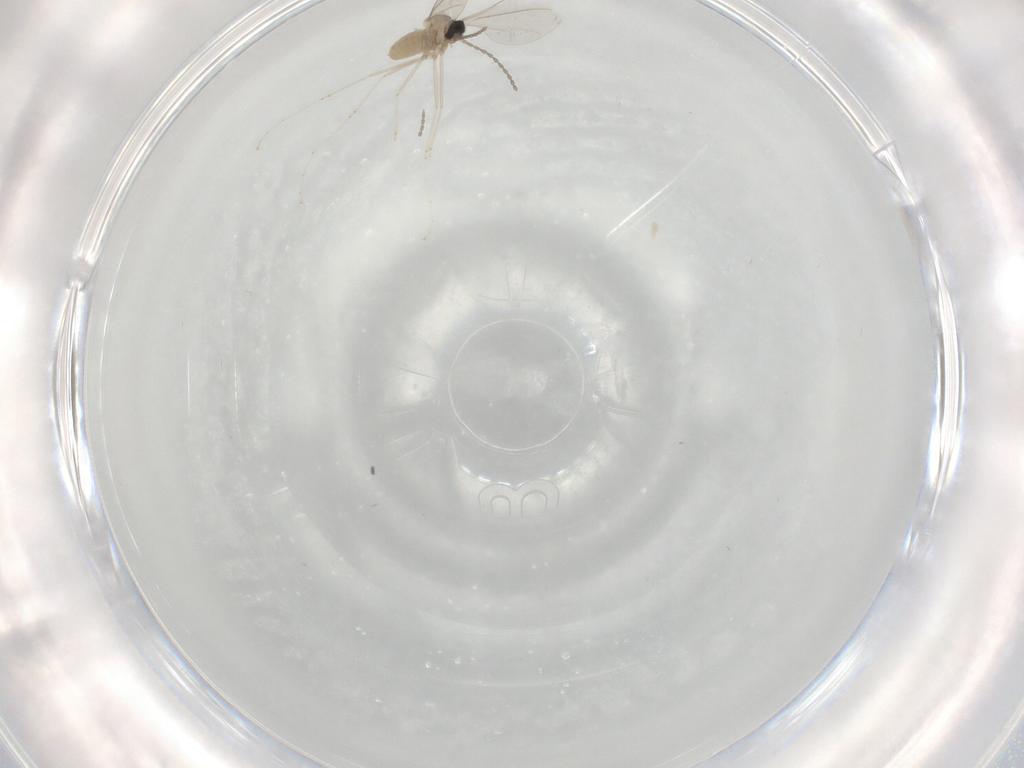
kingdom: Animalia
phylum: Arthropoda
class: Insecta
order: Diptera
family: Cecidomyiidae
